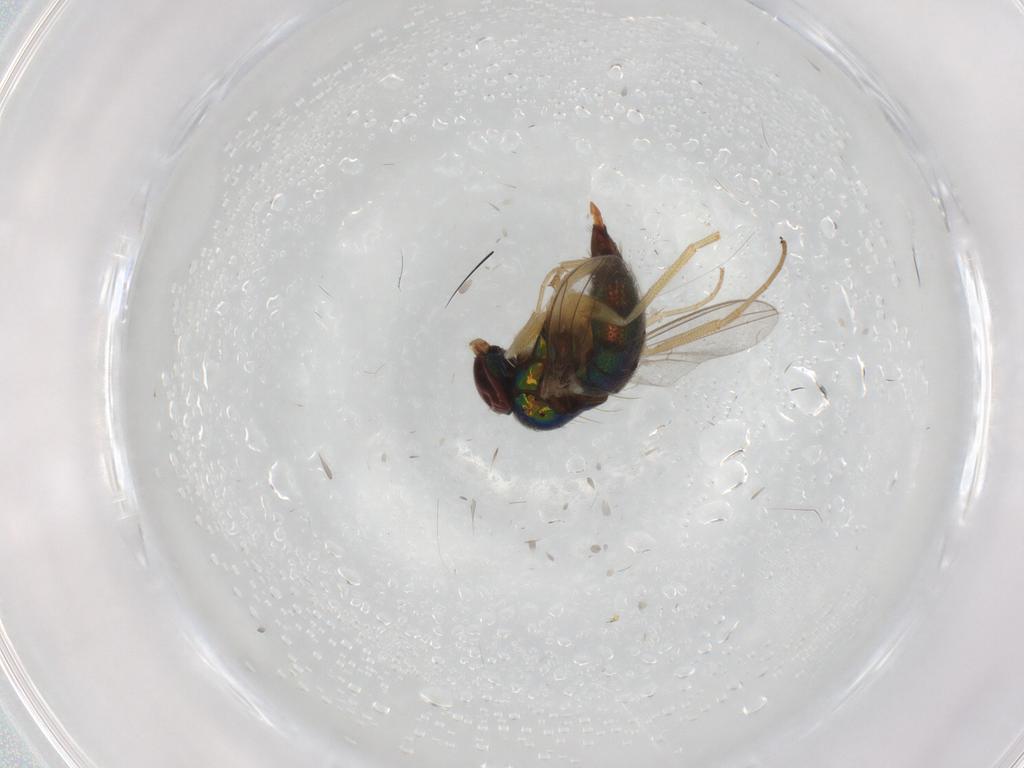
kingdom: Animalia
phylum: Arthropoda
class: Insecta
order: Diptera
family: Dolichopodidae
